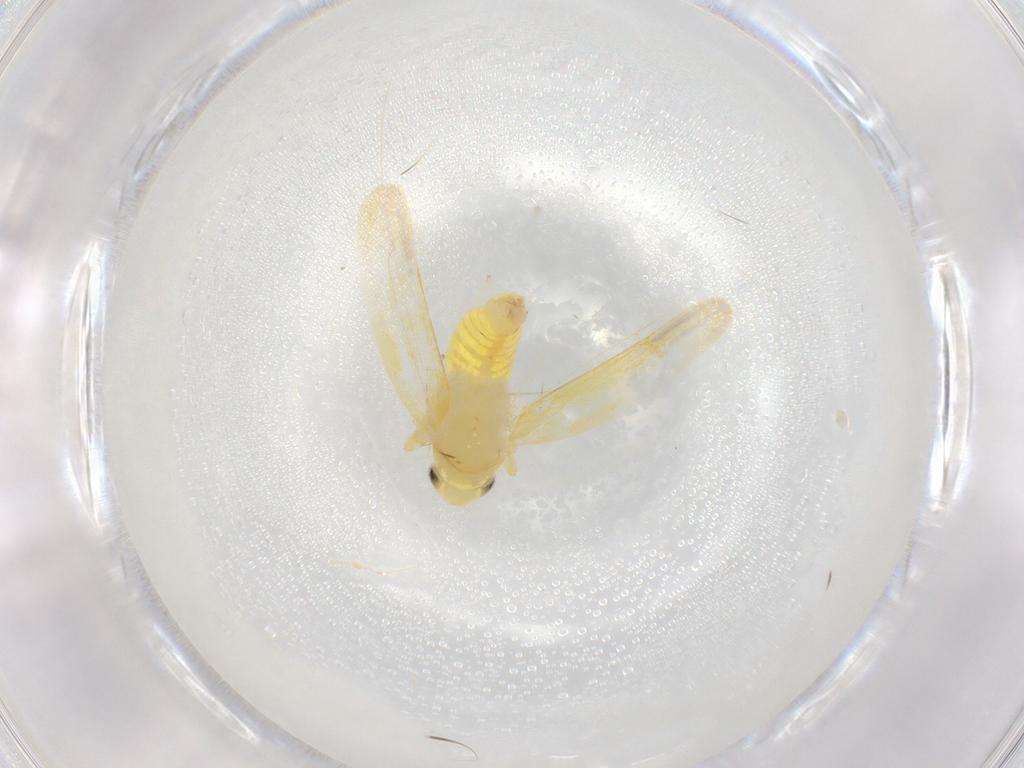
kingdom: Animalia
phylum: Arthropoda
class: Insecta
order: Hemiptera
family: Cicadellidae
